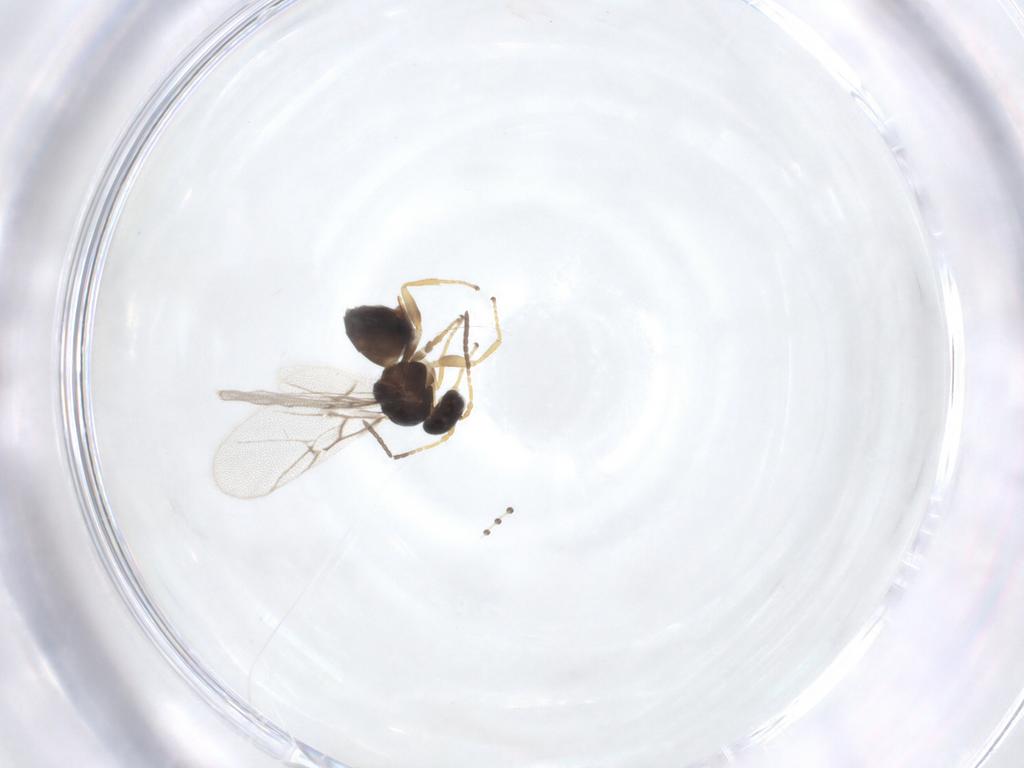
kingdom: Animalia
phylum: Arthropoda
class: Insecta
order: Hymenoptera
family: Cynipidae
